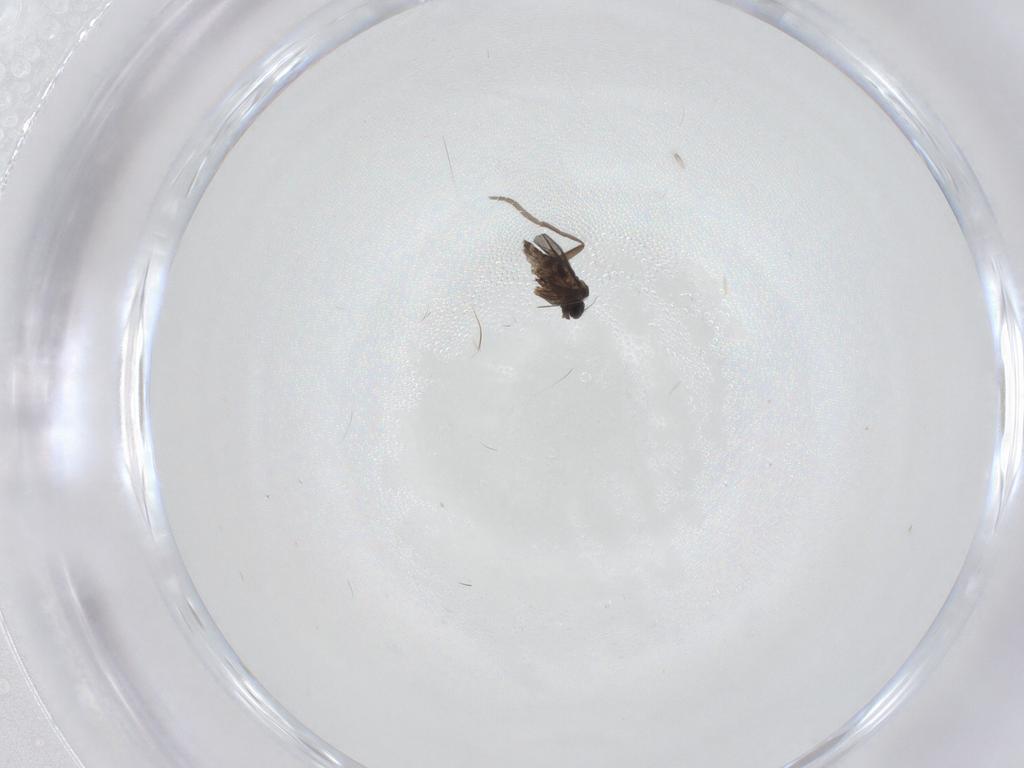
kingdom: Animalia
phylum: Arthropoda
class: Insecta
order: Diptera
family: Phoridae
